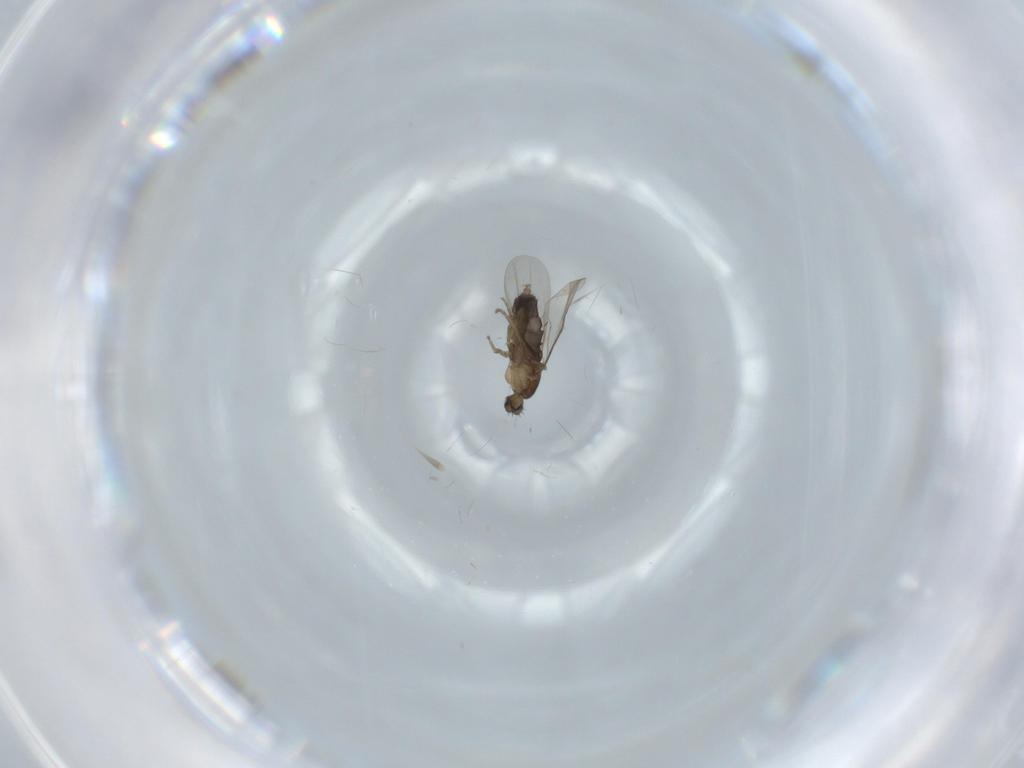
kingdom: Animalia
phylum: Arthropoda
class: Insecta
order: Diptera
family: Phoridae
